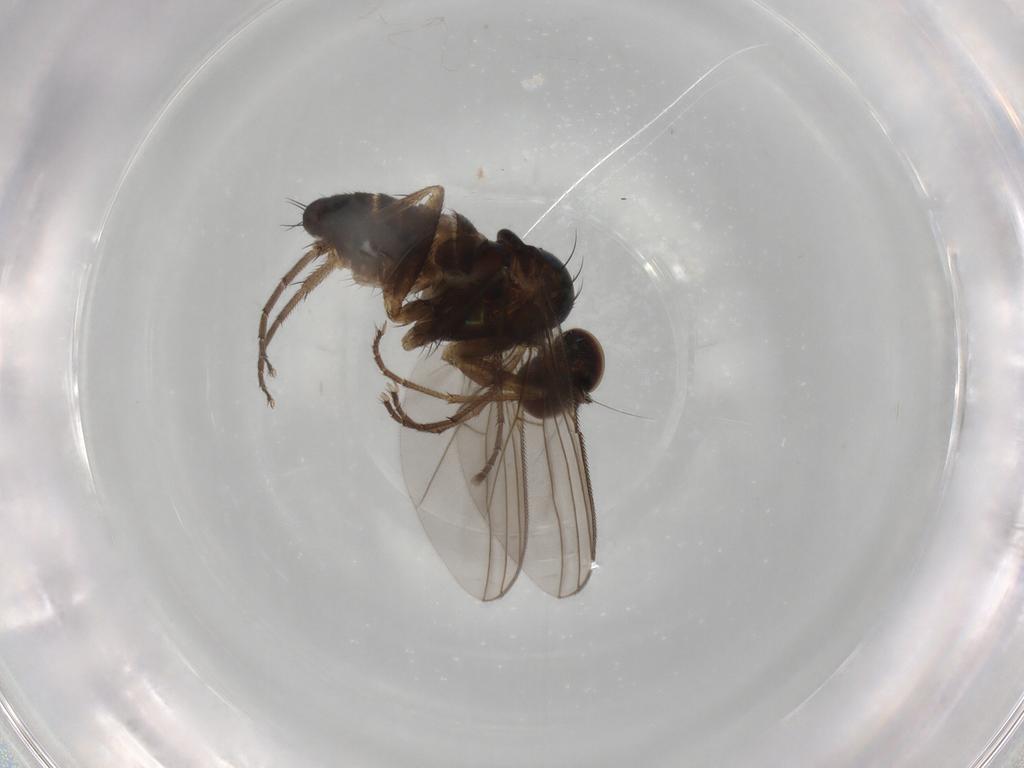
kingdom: Animalia
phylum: Arthropoda
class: Insecta
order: Diptera
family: Dolichopodidae
